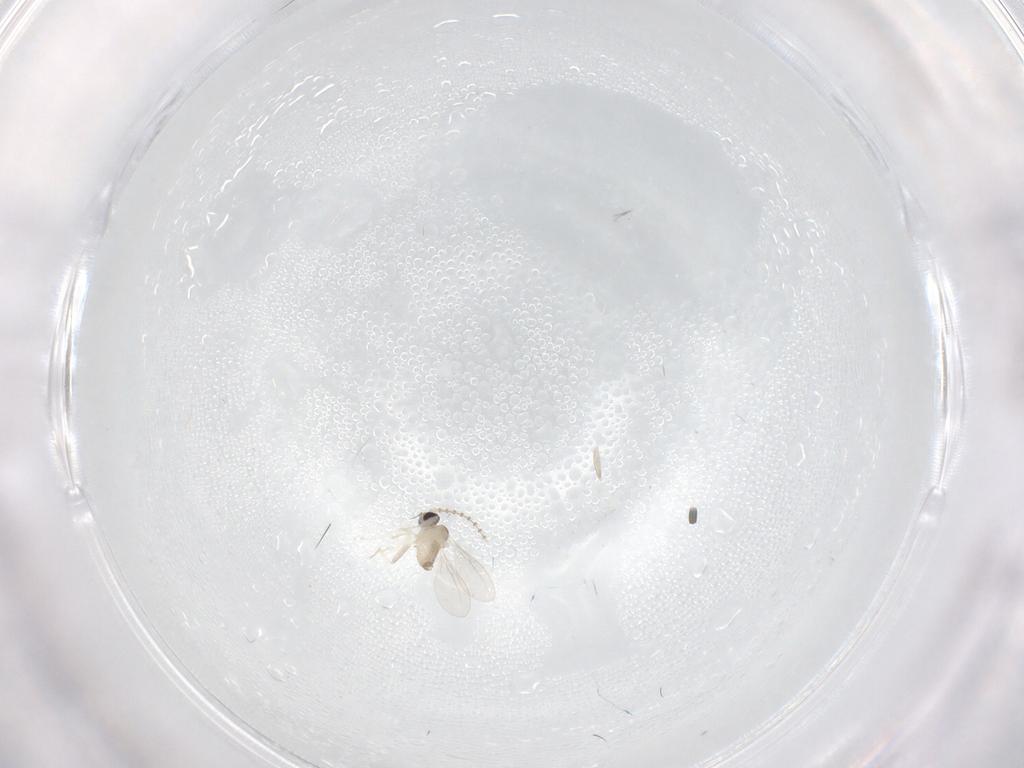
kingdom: Animalia
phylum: Arthropoda
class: Insecta
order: Diptera
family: Cecidomyiidae
